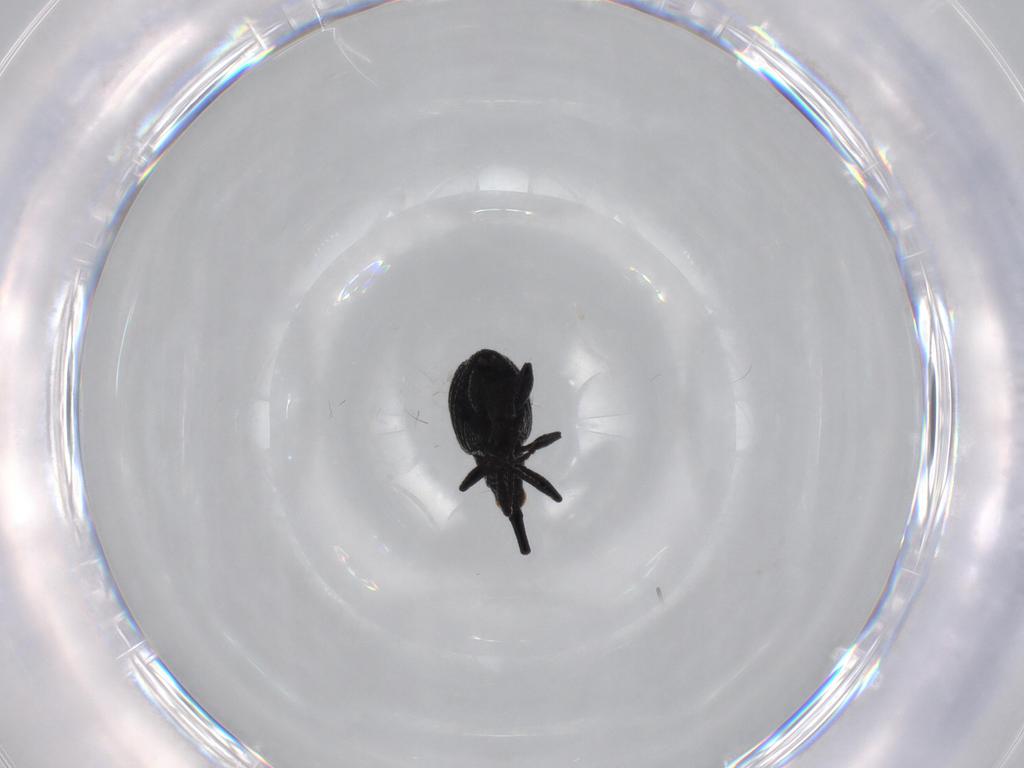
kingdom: Animalia
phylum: Arthropoda
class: Insecta
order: Coleoptera
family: Brentidae
